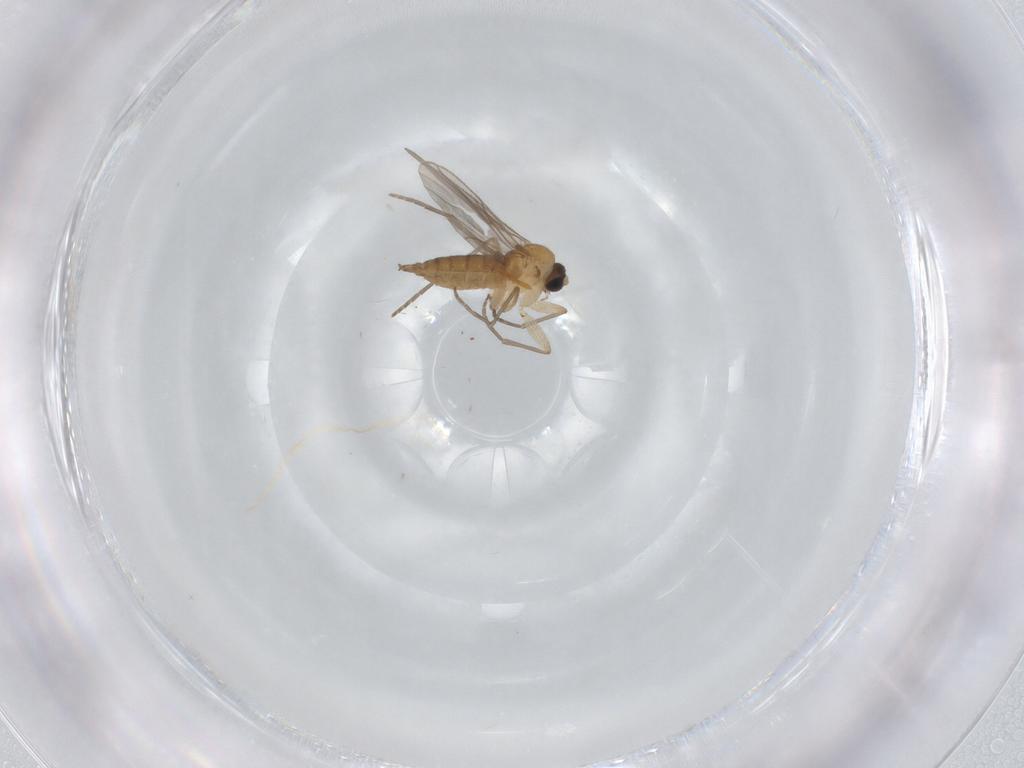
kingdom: Animalia
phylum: Arthropoda
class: Insecta
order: Diptera
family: Sciaridae
